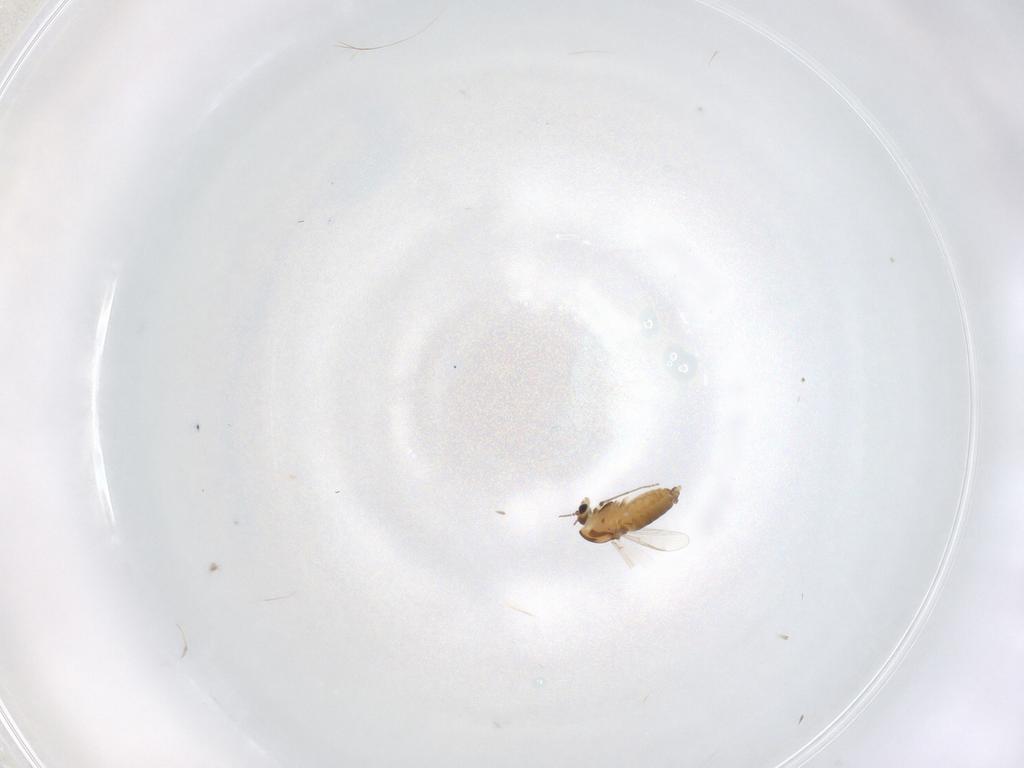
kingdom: Animalia
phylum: Arthropoda
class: Insecta
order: Diptera
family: Chironomidae
